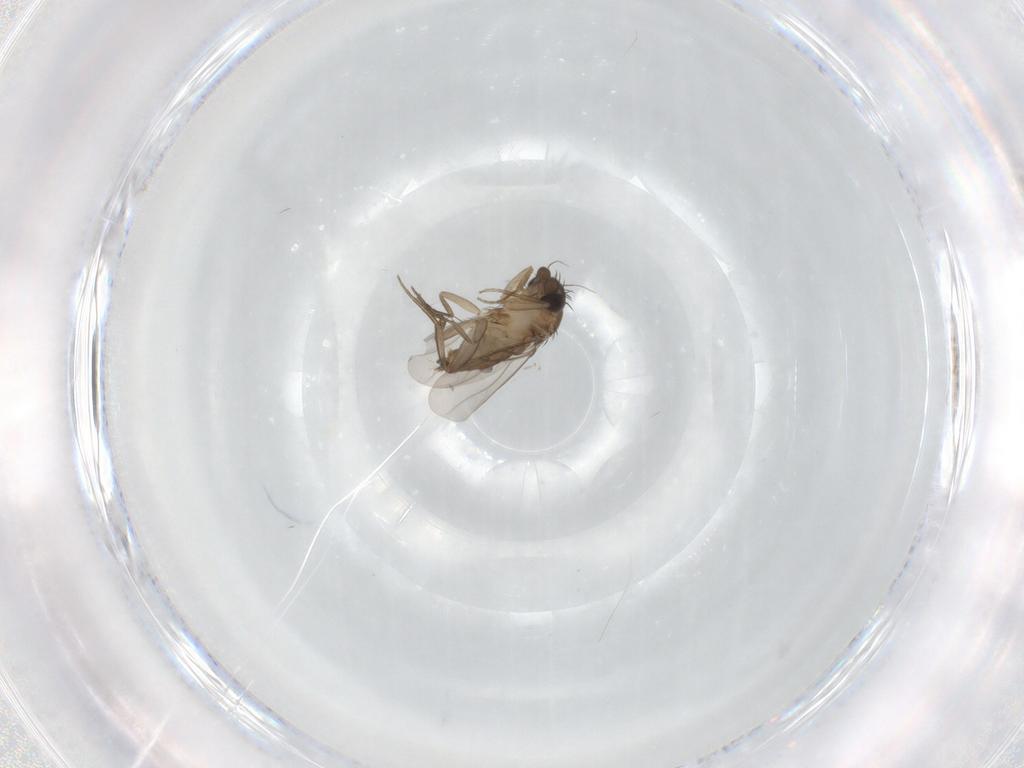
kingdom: Animalia
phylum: Arthropoda
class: Insecta
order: Diptera
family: Phoridae
